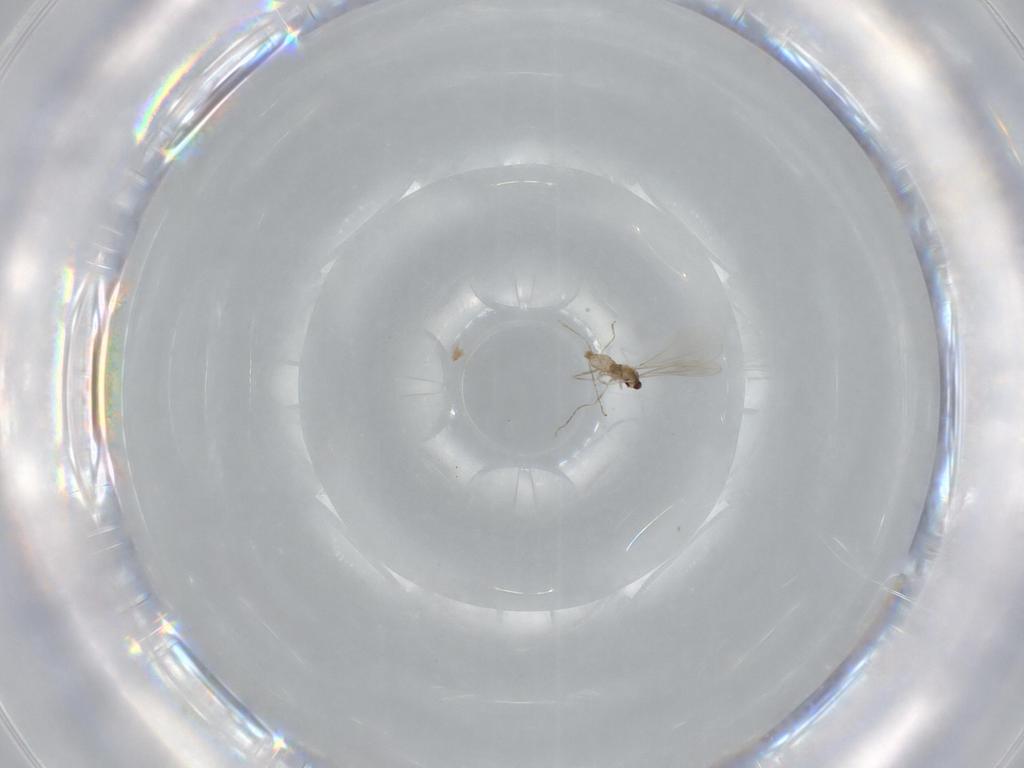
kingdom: Animalia
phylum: Arthropoda
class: Insecta
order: Diptera
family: Cecidomyiidae
